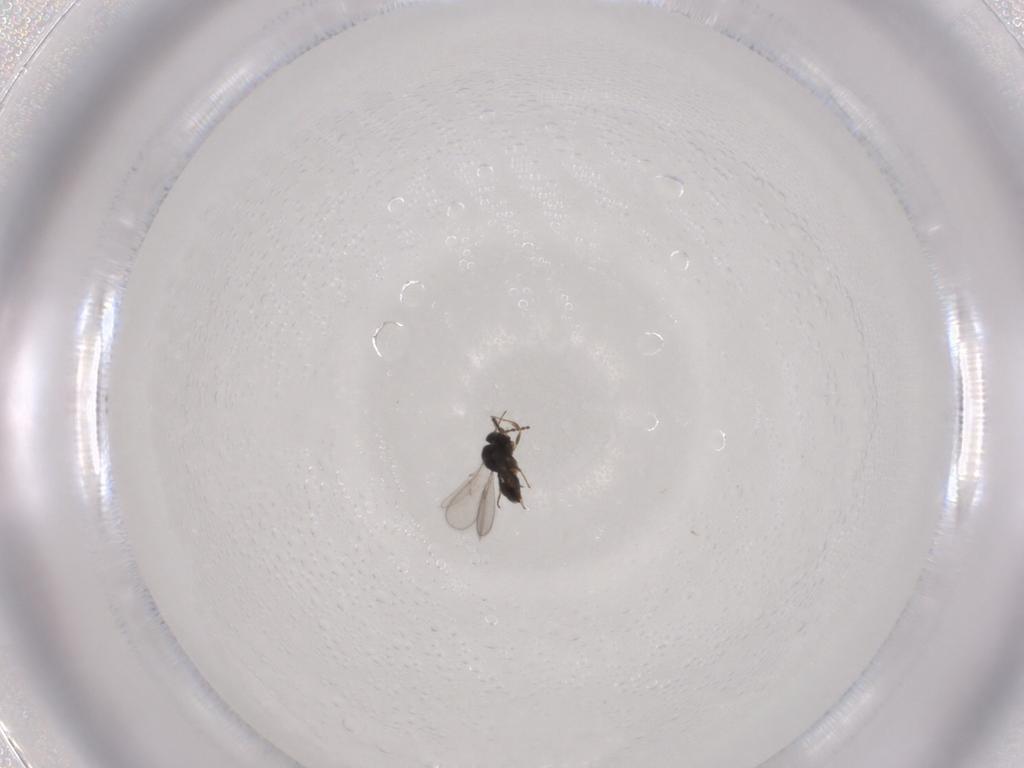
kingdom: Animalia
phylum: Arthropoda
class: Insecta
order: Hymenoptera
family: Scelionidae
